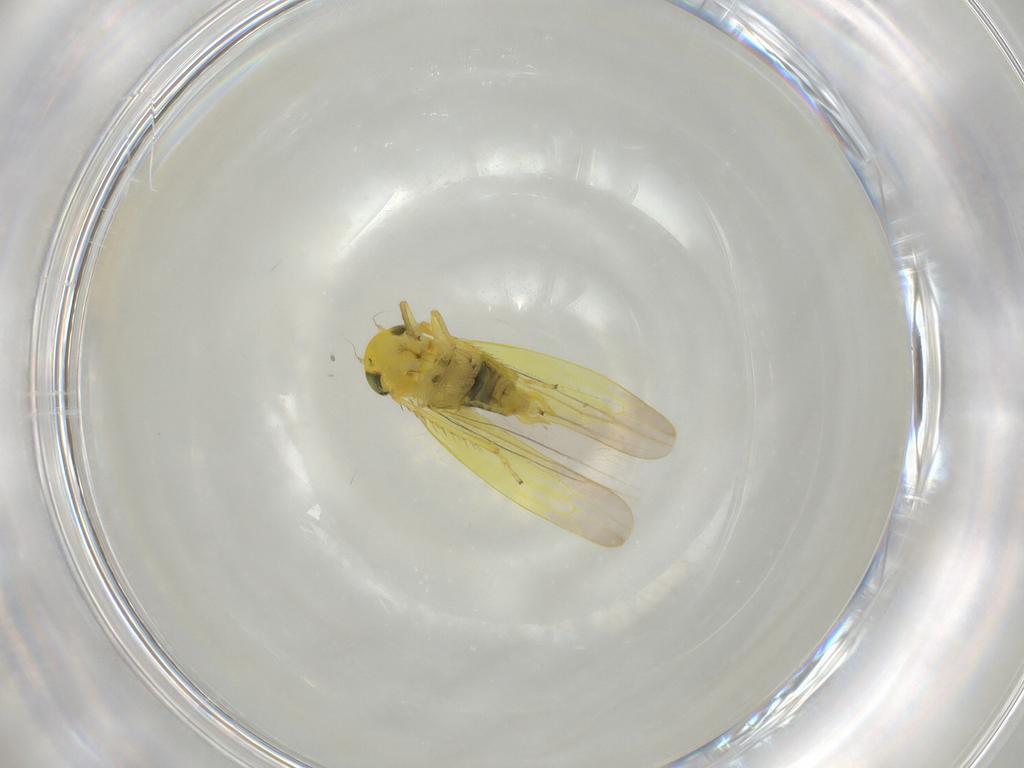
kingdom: Animalia
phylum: Arthropoda
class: Insecta
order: Hemiptera
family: Cicadellidae
